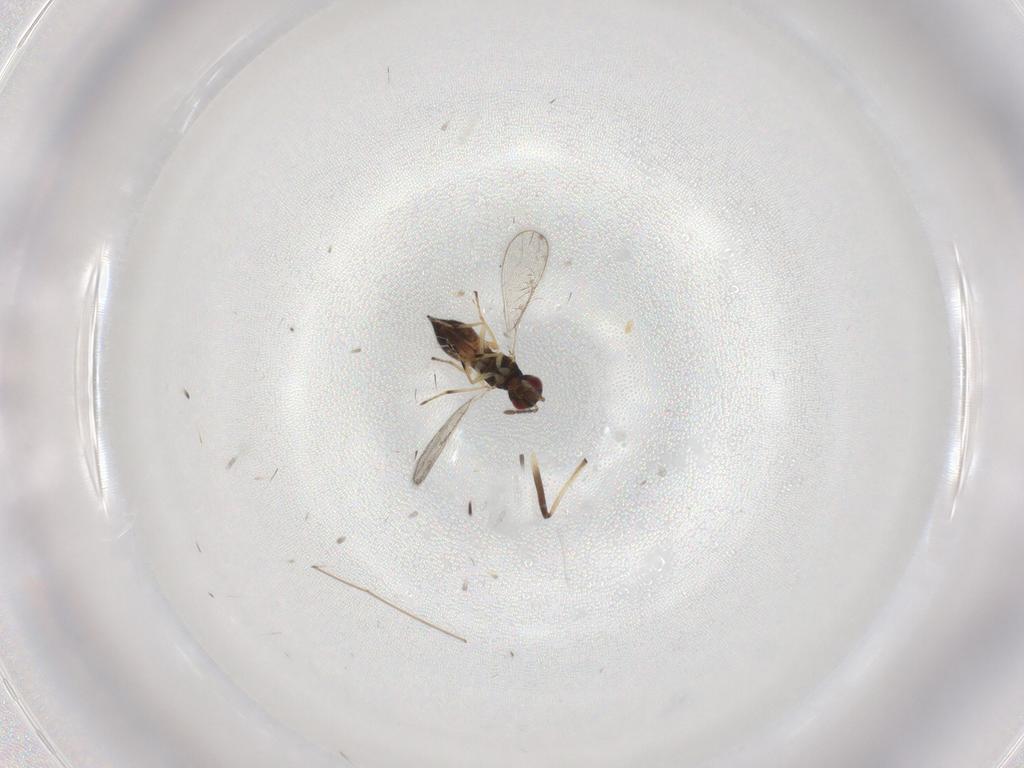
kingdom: Animalia
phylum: Arthropoda
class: Insecta
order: Hymenoptera
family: Eulophidae
